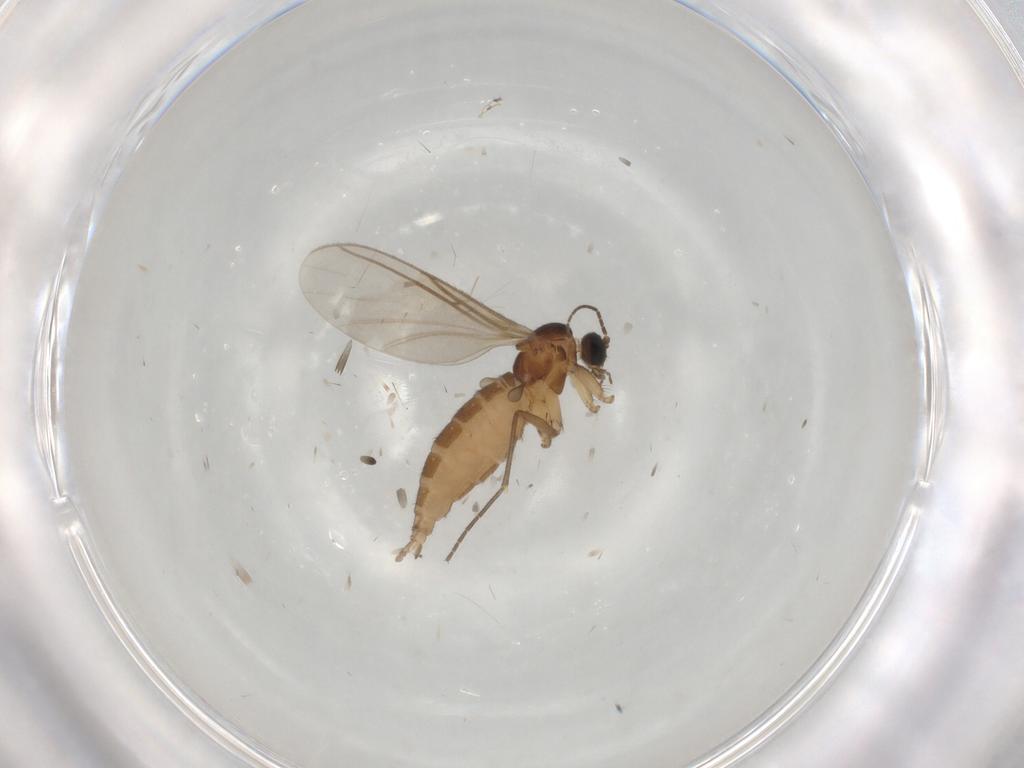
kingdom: Animalia
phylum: Arthropoda
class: Insecta
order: Diptera
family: Sciaridae
